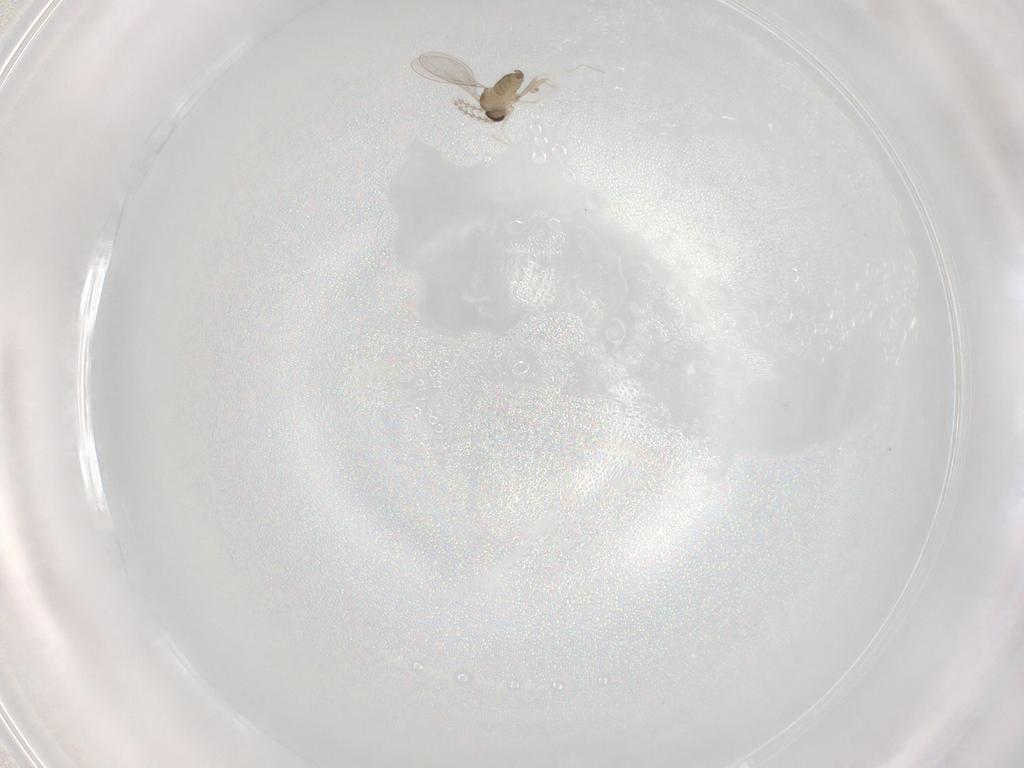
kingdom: Animalia
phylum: Arthropoda
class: Insecta
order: Diptera
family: Cecidomyiidae
